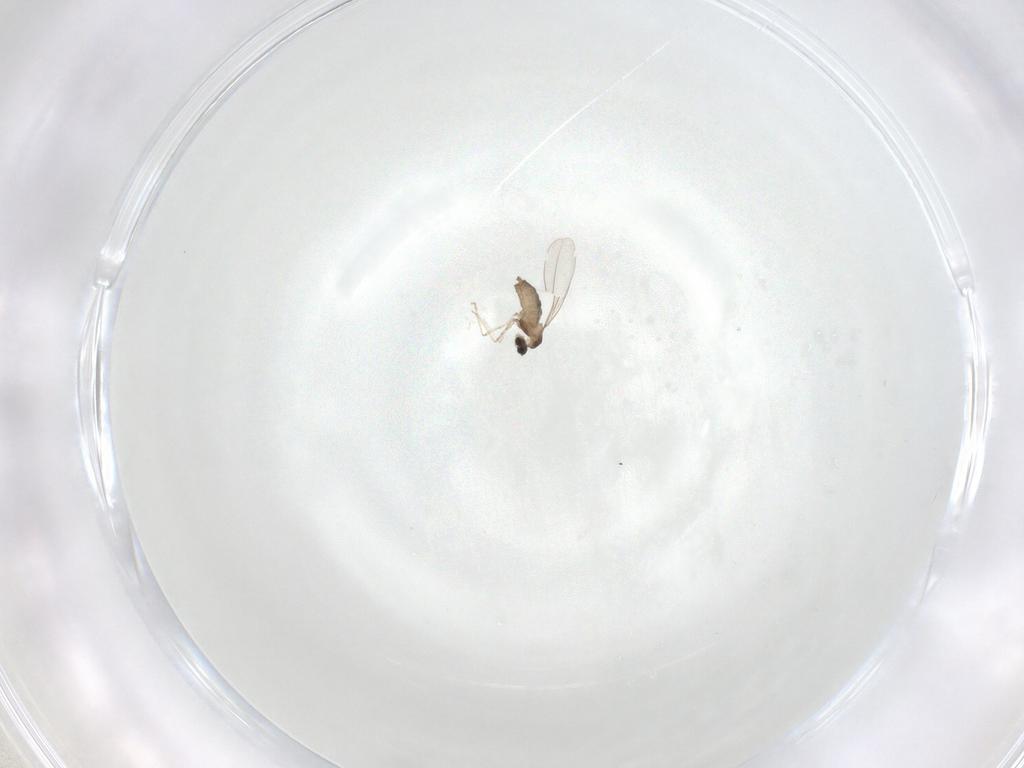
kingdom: Animalia
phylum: Arthropoda
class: Insecta
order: Diptera
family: Cecidomyiidae
